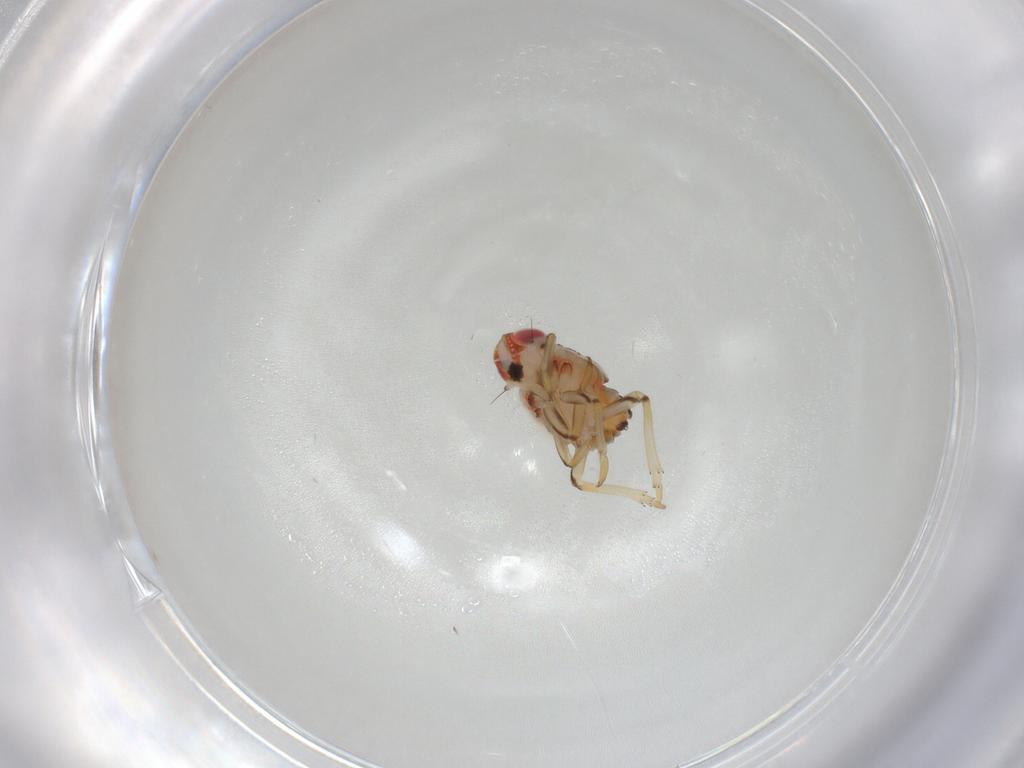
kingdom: Animalia
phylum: Arthropoda
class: Insecta
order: Hemiptera
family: Issidae
